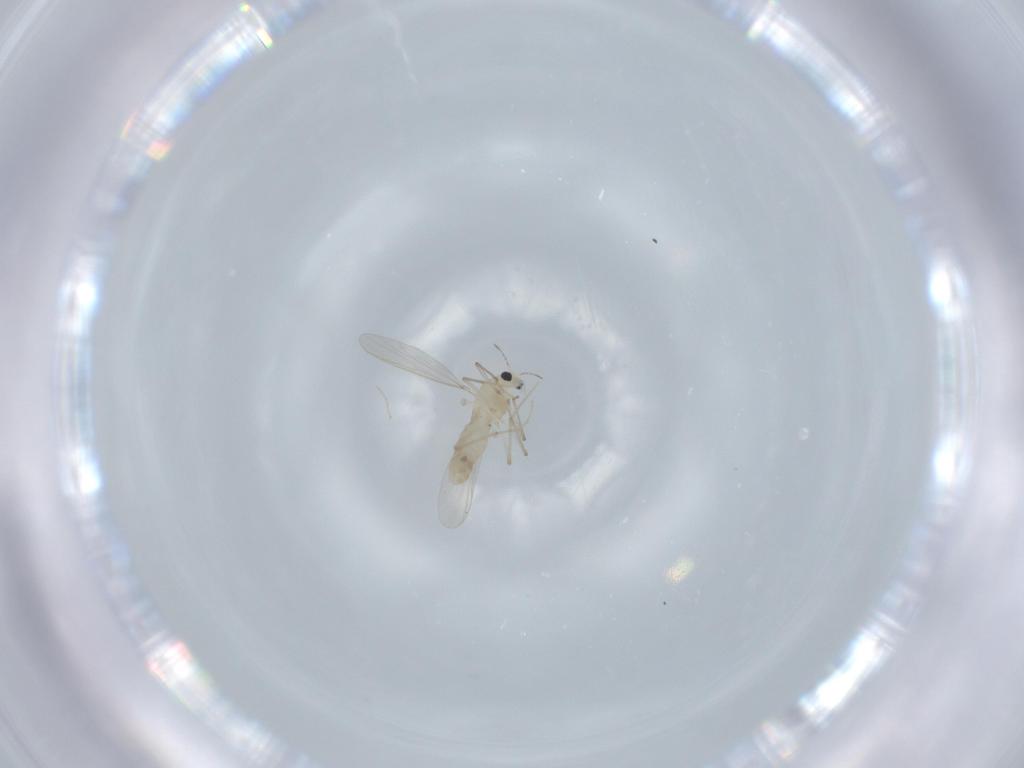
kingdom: Animalia
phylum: Arthropoda
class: Insecta
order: Diptera
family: Chironomidae
